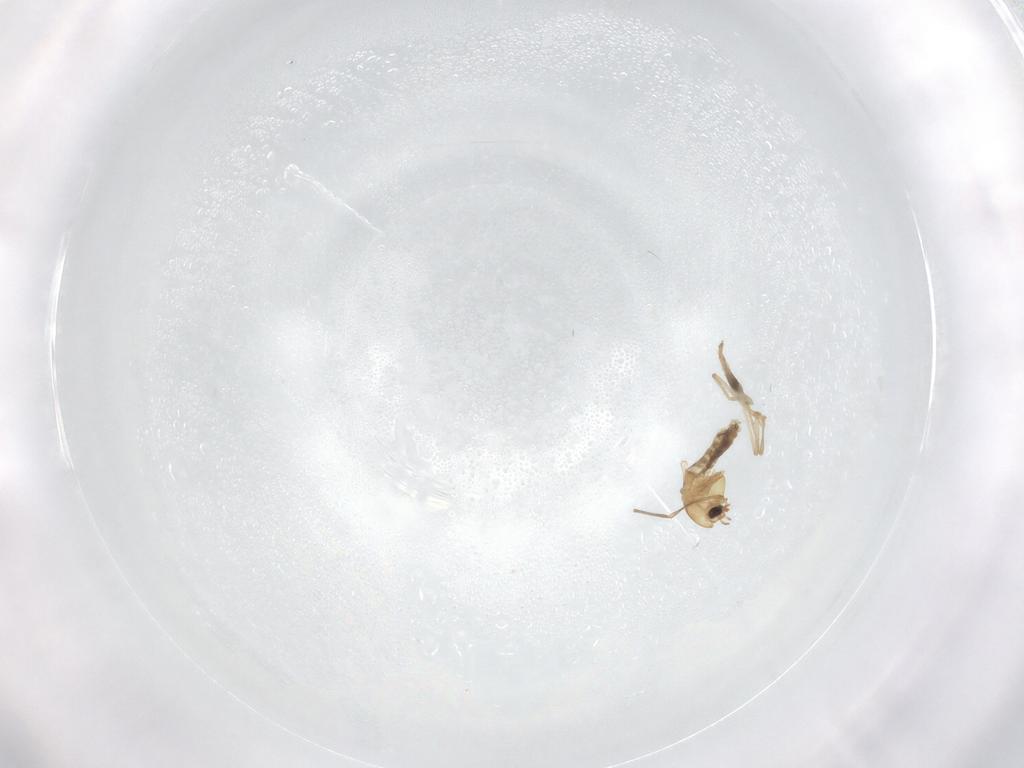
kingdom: Animalia
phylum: Arthropoda
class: Insecta
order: Diptera
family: Chironomidae
